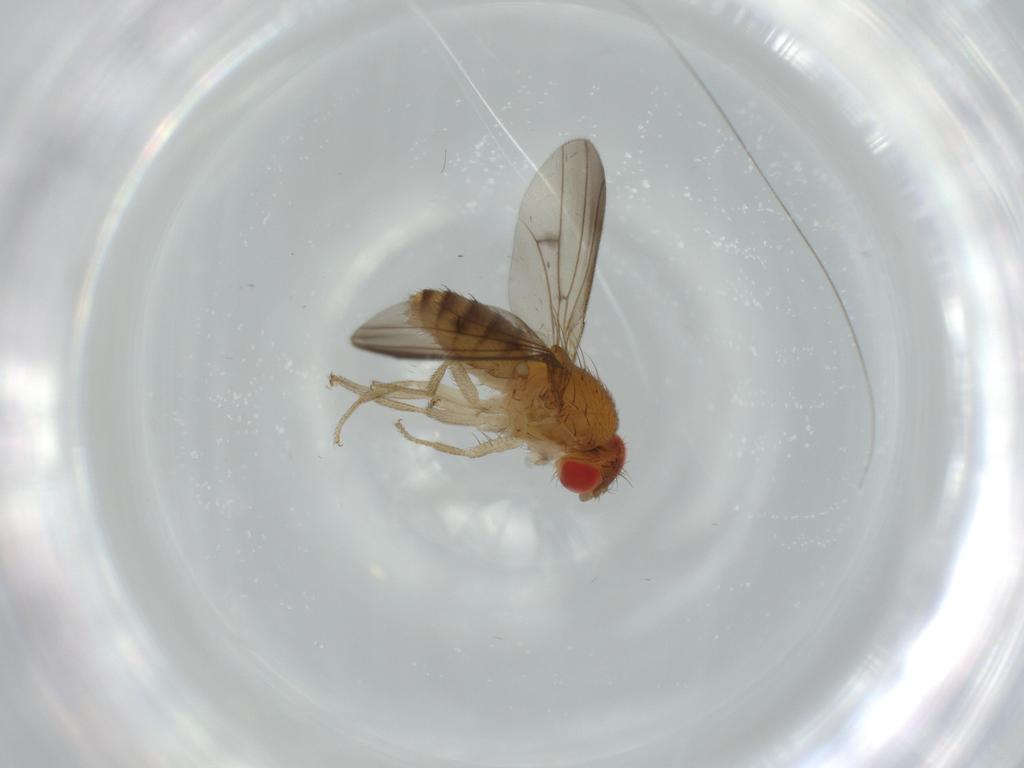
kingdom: Animalia
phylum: Arthropoda
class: Insecta
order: Diptera
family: Drosophilidae
